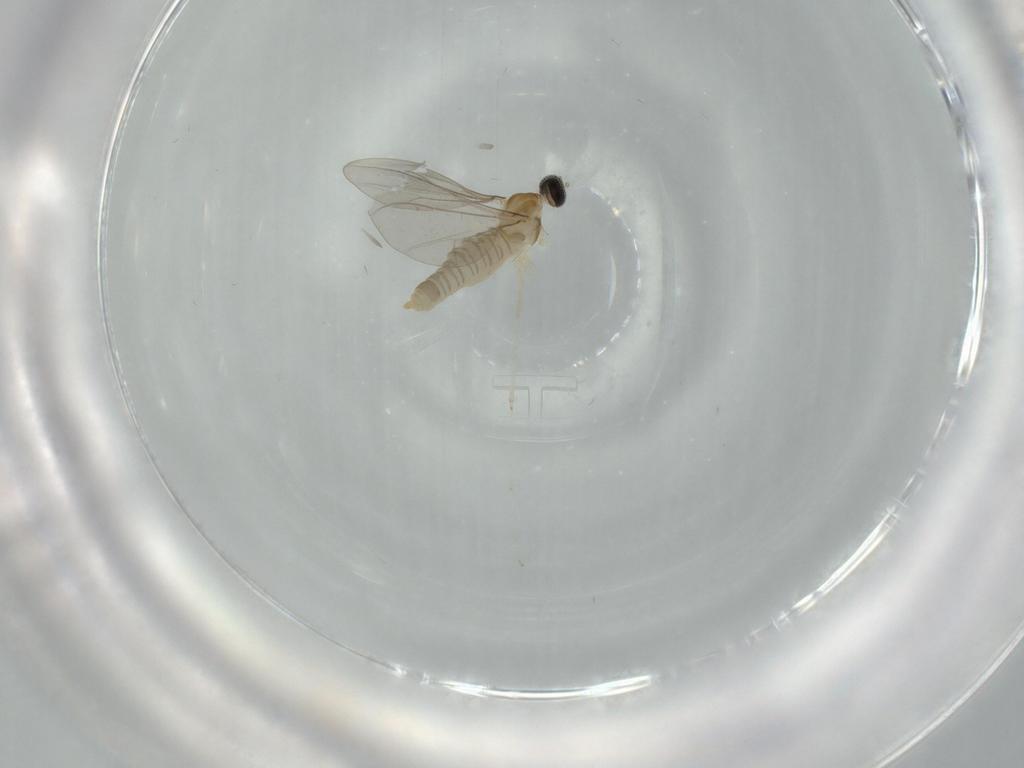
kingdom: Animalia
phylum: Arthropoda
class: Insecta
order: Diptera
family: Cecidomyiidae
